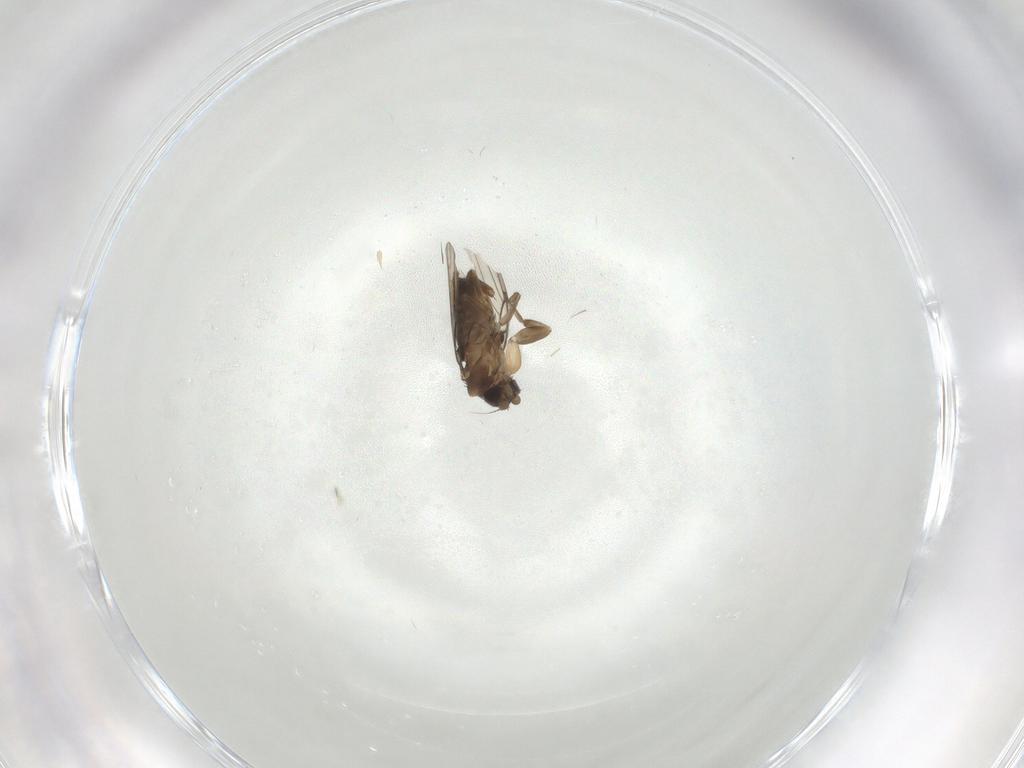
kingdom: Animalia
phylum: Arthropoda
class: Insecta
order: Diptera
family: Phoridae
